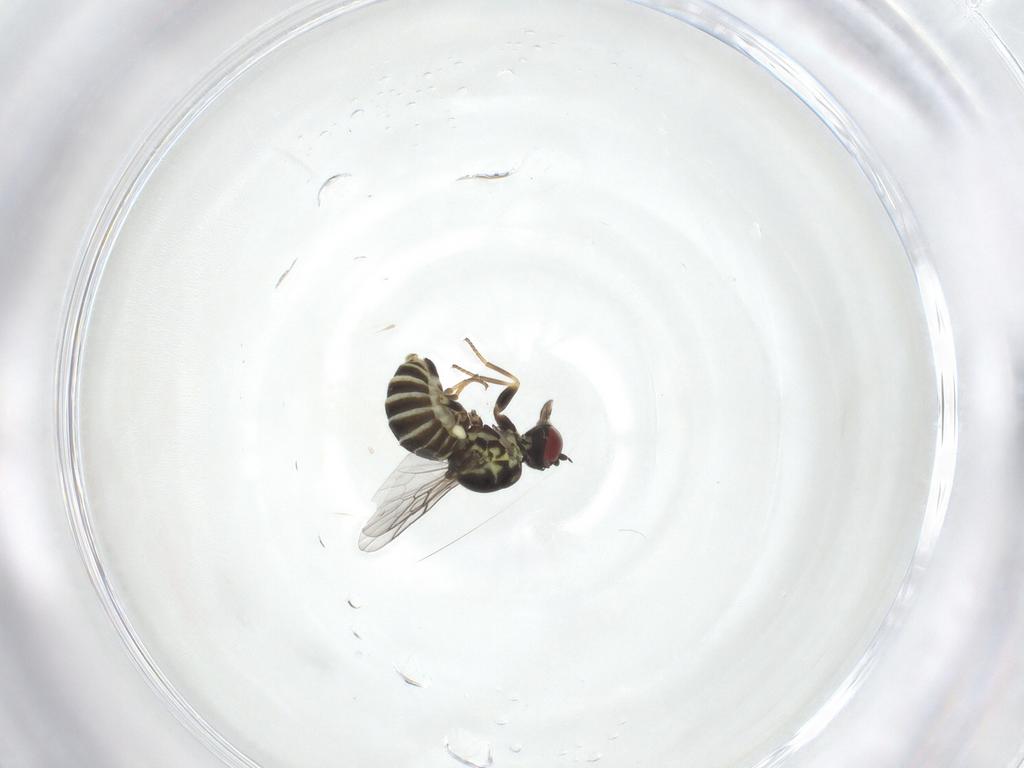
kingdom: Animalia
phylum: Arthropoda
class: Insecta
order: Diptera
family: Mythicomyiidae
